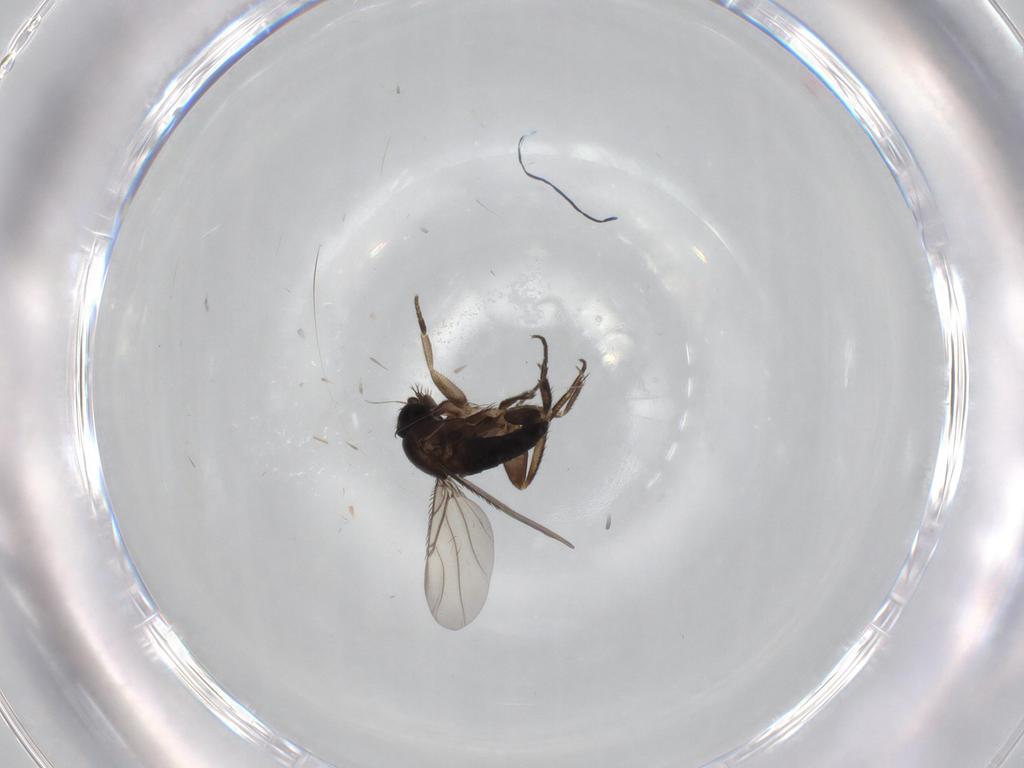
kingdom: Animalia
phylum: Arthropoda
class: Insecta
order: Diptera
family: Phoridae
